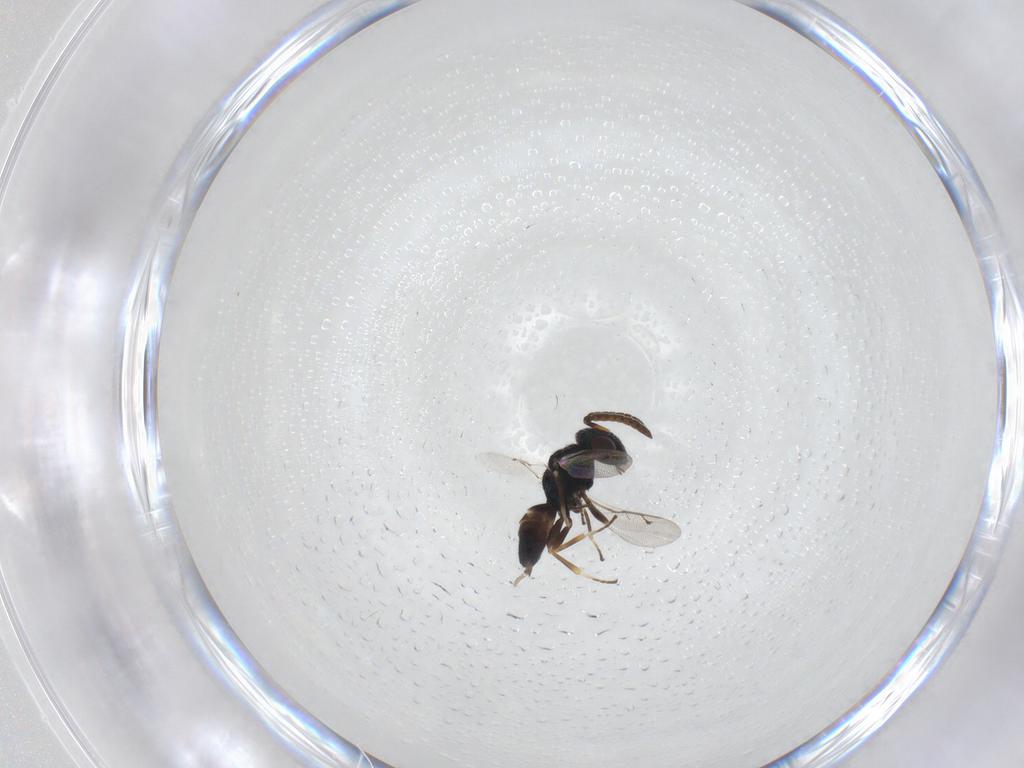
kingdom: Animalia
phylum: Arthropoda
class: Insecta
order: Hymenoptera
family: Pteromalidae
